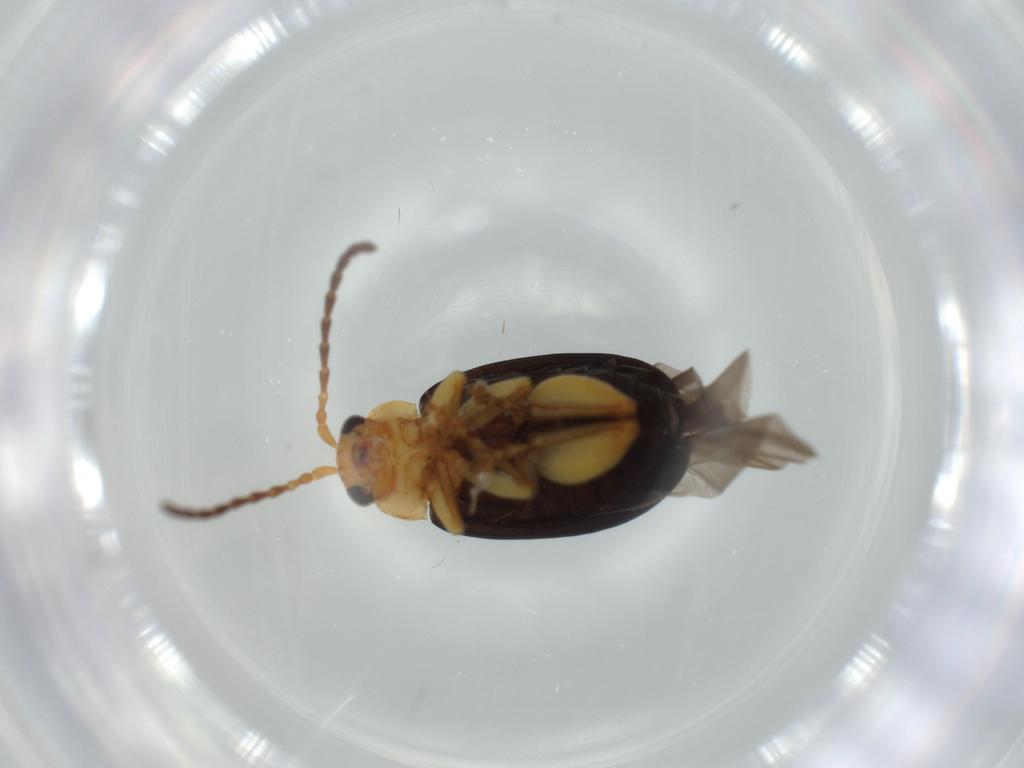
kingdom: Animalia
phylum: Arthropoda
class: Insecta
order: Coleoptera
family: Chrysomelidae
